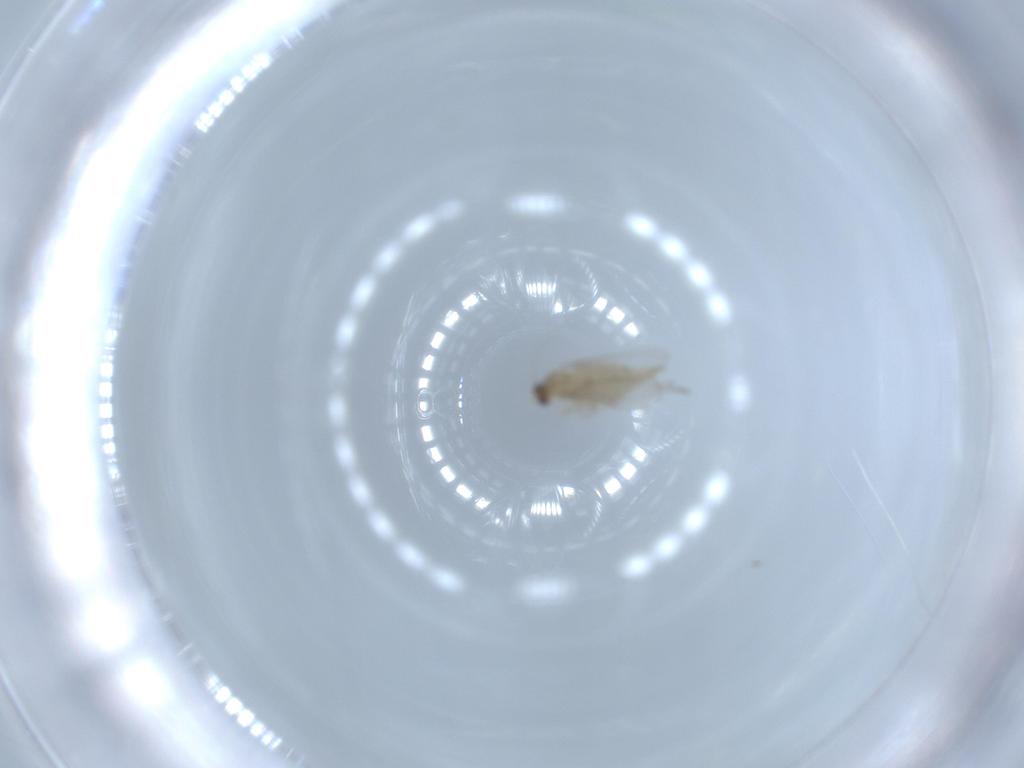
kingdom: Animalia
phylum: Arthropoda
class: Insecta
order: Diptera
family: Cecidomyiidae
